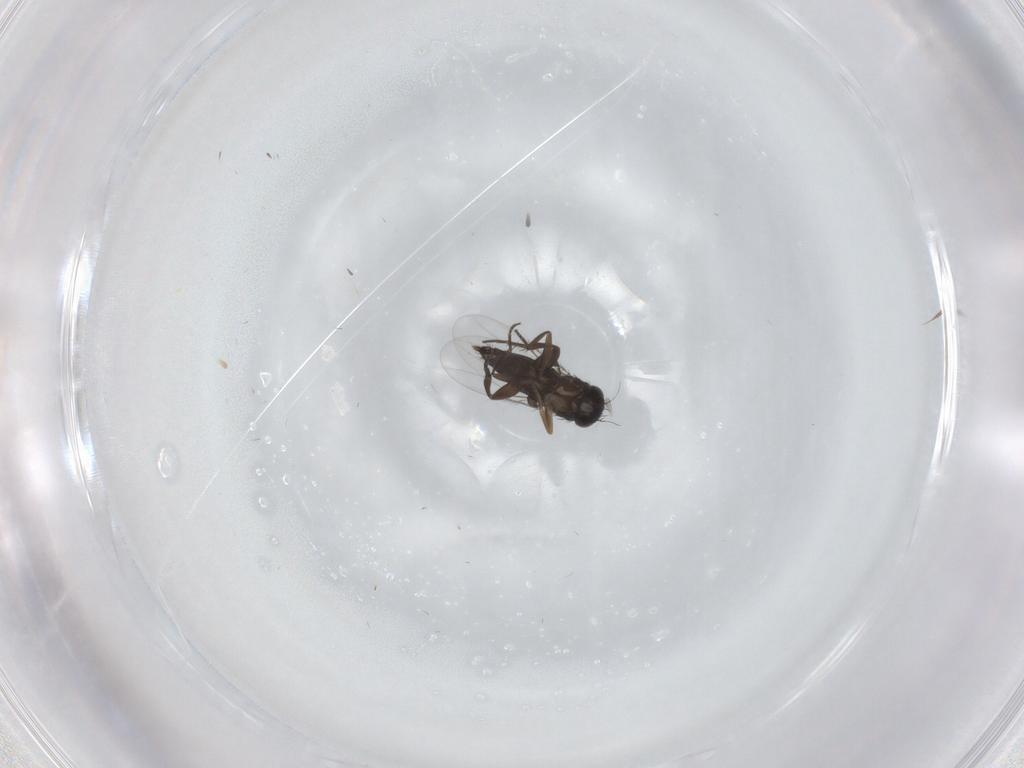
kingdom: Animalia
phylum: Arthropoda
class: Insecta
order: Diptera
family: Phoridae
